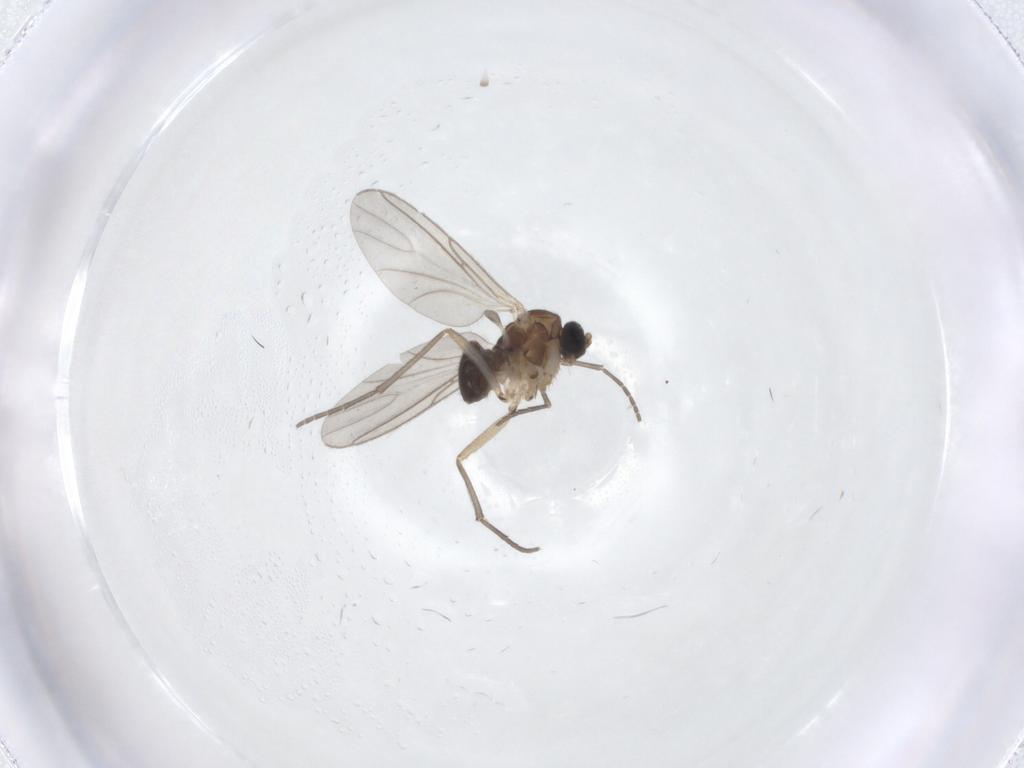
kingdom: Animalia
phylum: Arthropoda
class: Insecta
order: Diptera
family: Sciaridae
